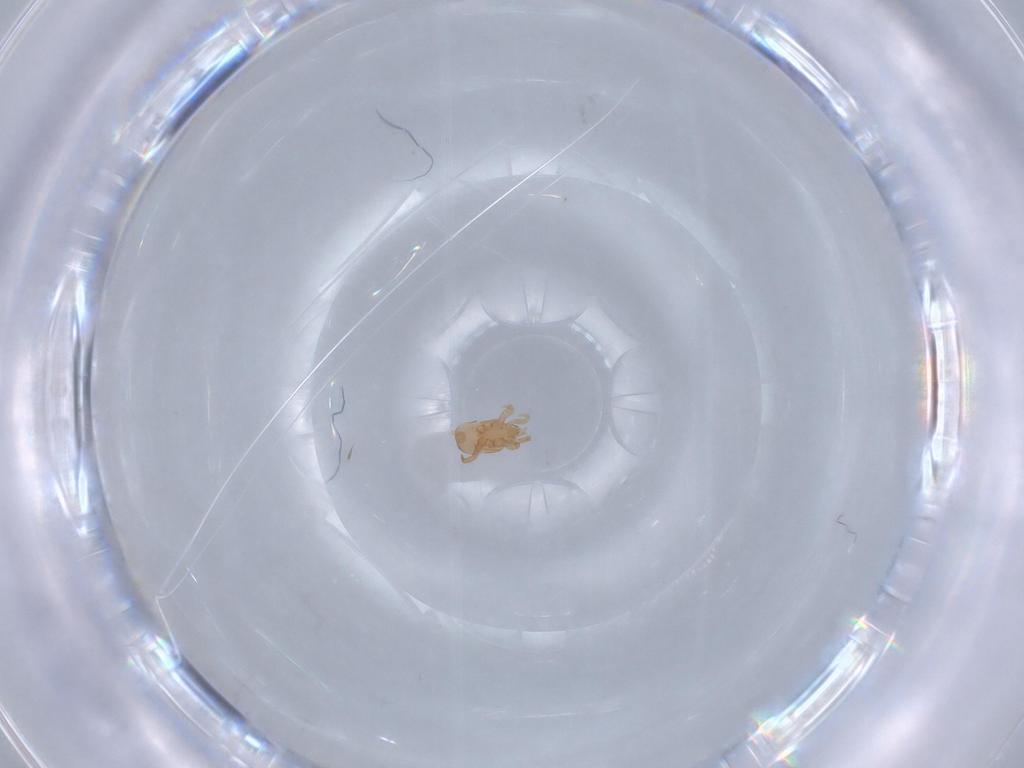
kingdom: Animalia
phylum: Arthropoda
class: Arachnida
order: Mesostigmata
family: Halolaelapidae
